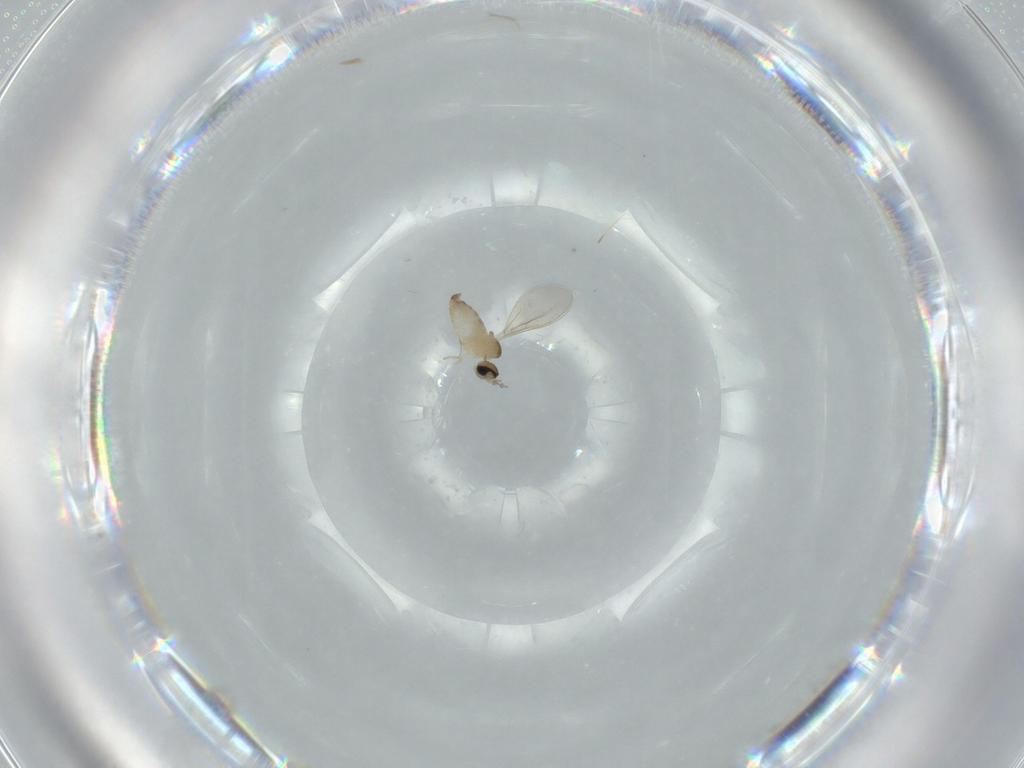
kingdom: Animalia
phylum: Arthropoda
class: Insecta
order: Diptera
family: Cecidomyiidae
